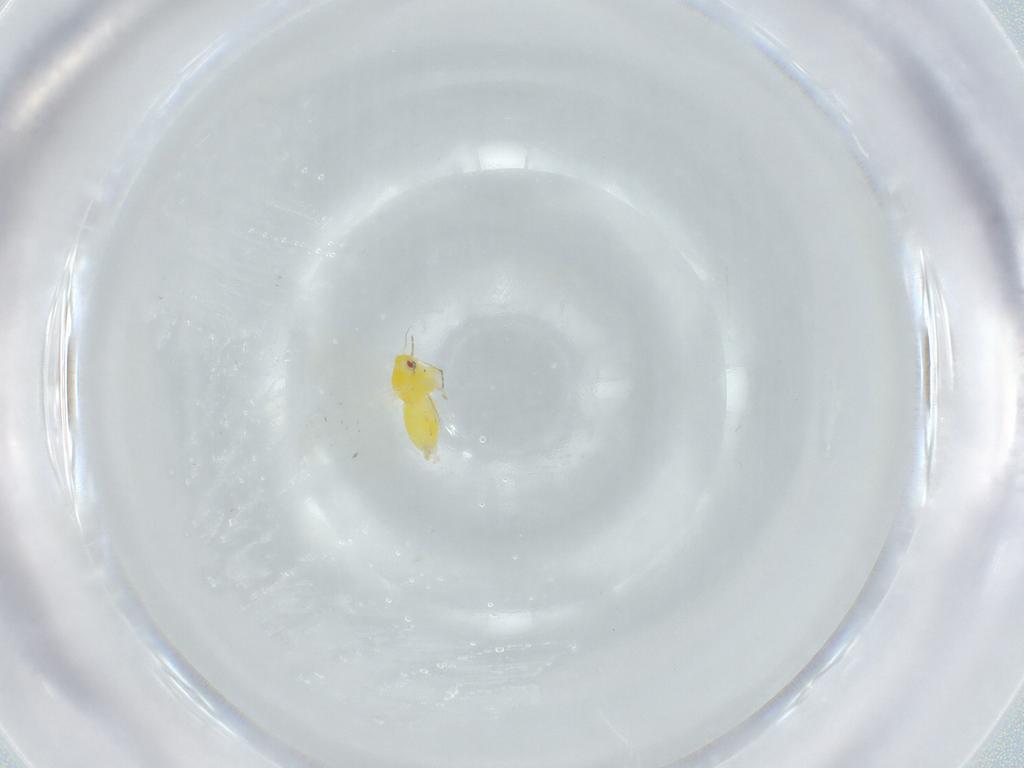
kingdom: Animalia
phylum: Arthropoda
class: Insecta
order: Hemiptera
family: Aleyrodidae
